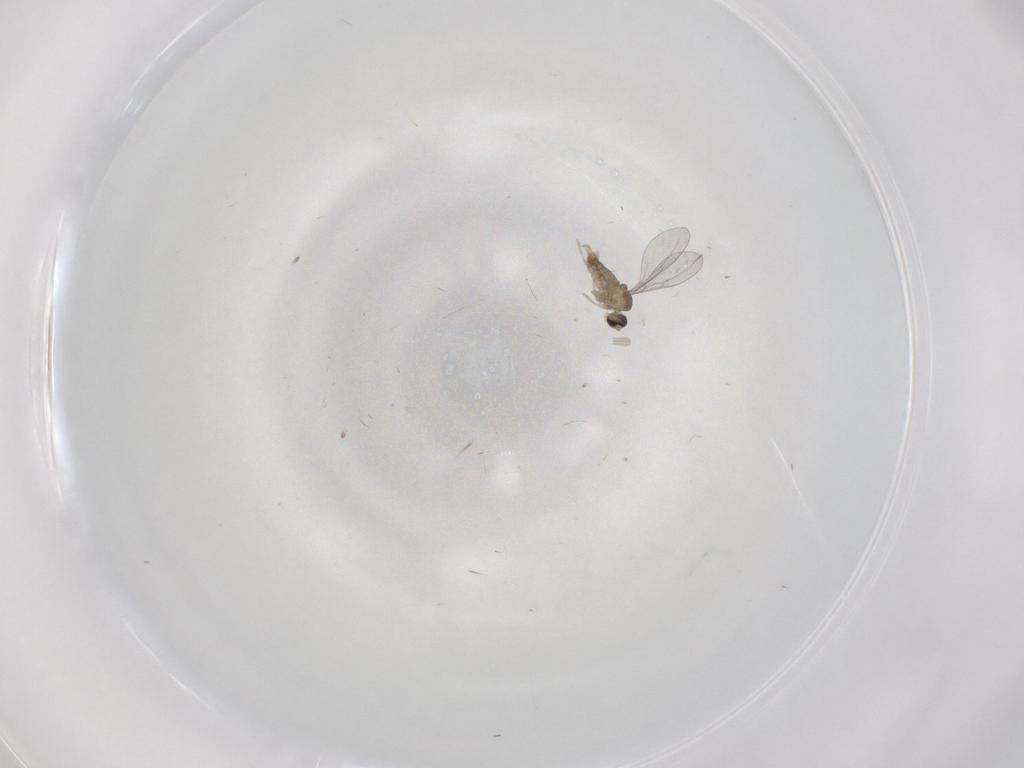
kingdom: Animalia
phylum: Arthropoda
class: Insecta
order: Diptera
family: Cecidomyiidae
